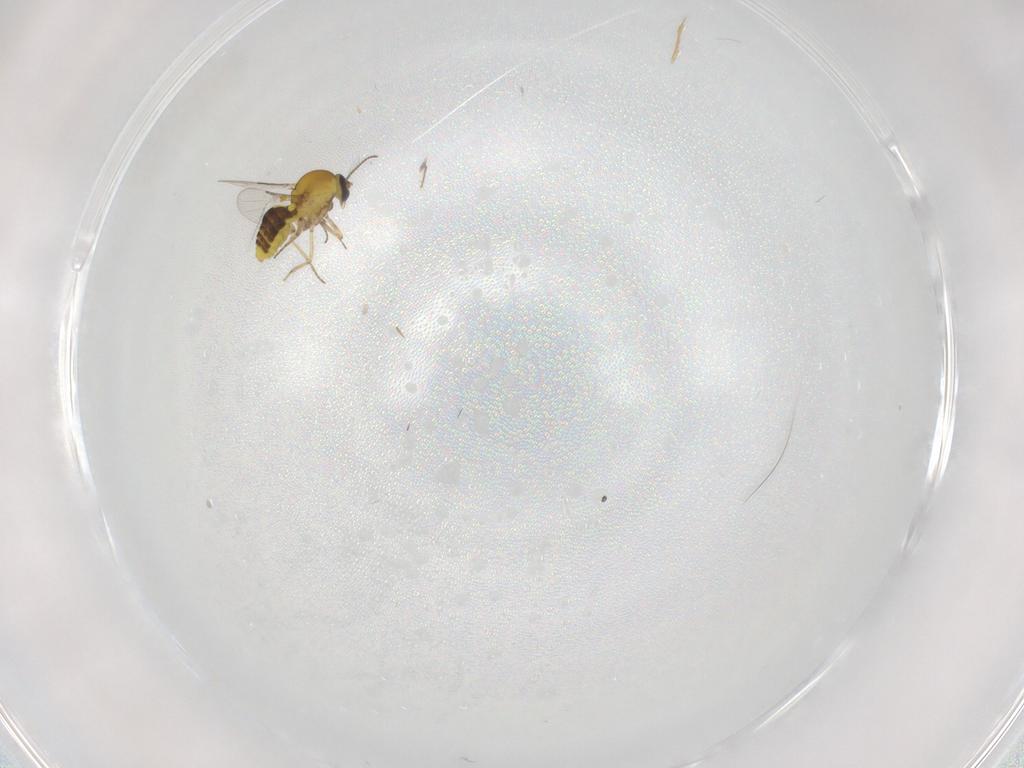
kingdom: Animalia
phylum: Arthropoda
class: Insecta
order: Diptera
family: Ceratopogonidae
